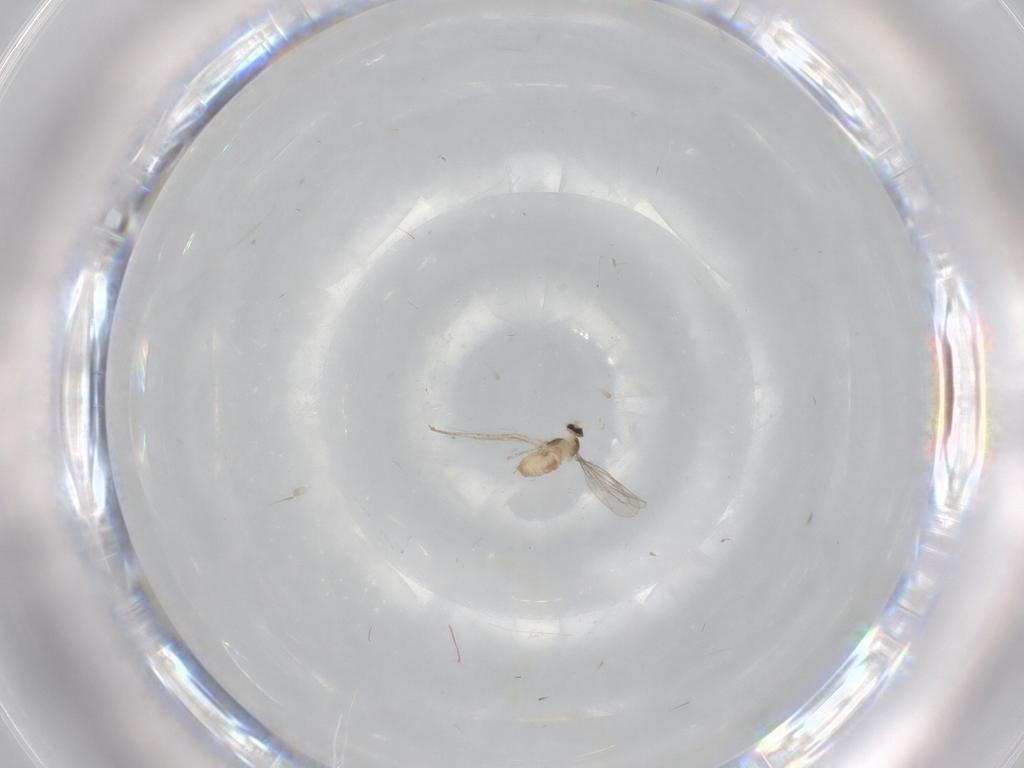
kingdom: Animalia
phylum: Arthropoda
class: Insecta
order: Diptera
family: Cecidomyiidae
